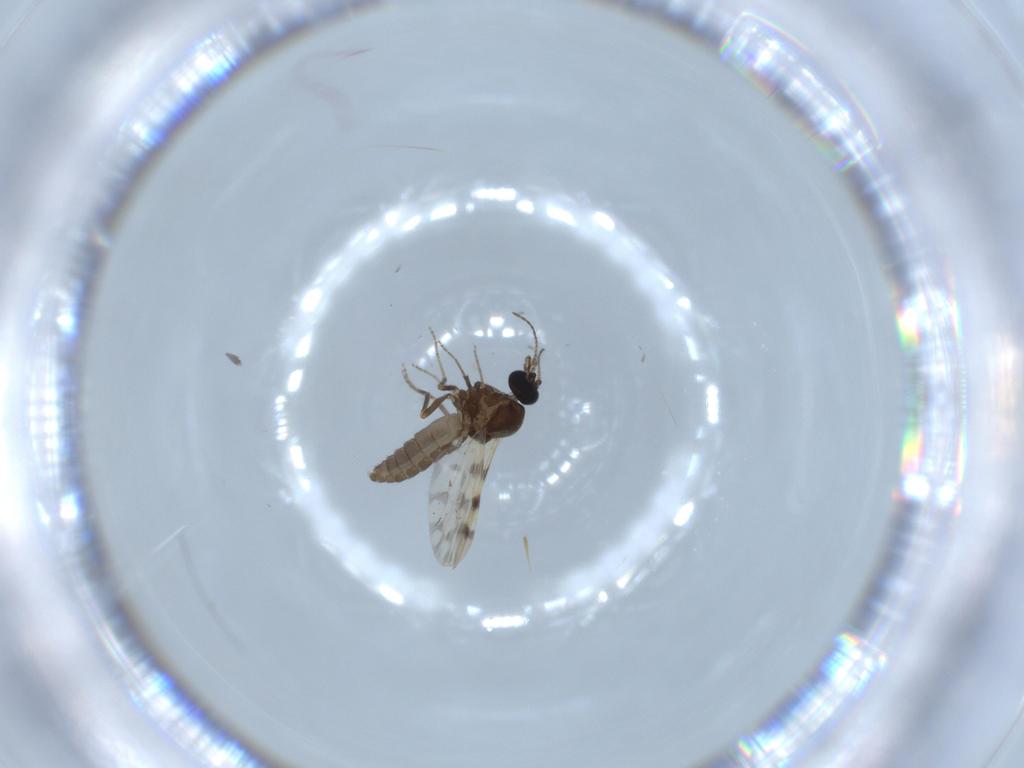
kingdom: Animalia
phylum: Arthropoda
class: Insecta
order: Diptera
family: Ceratopogonidae
